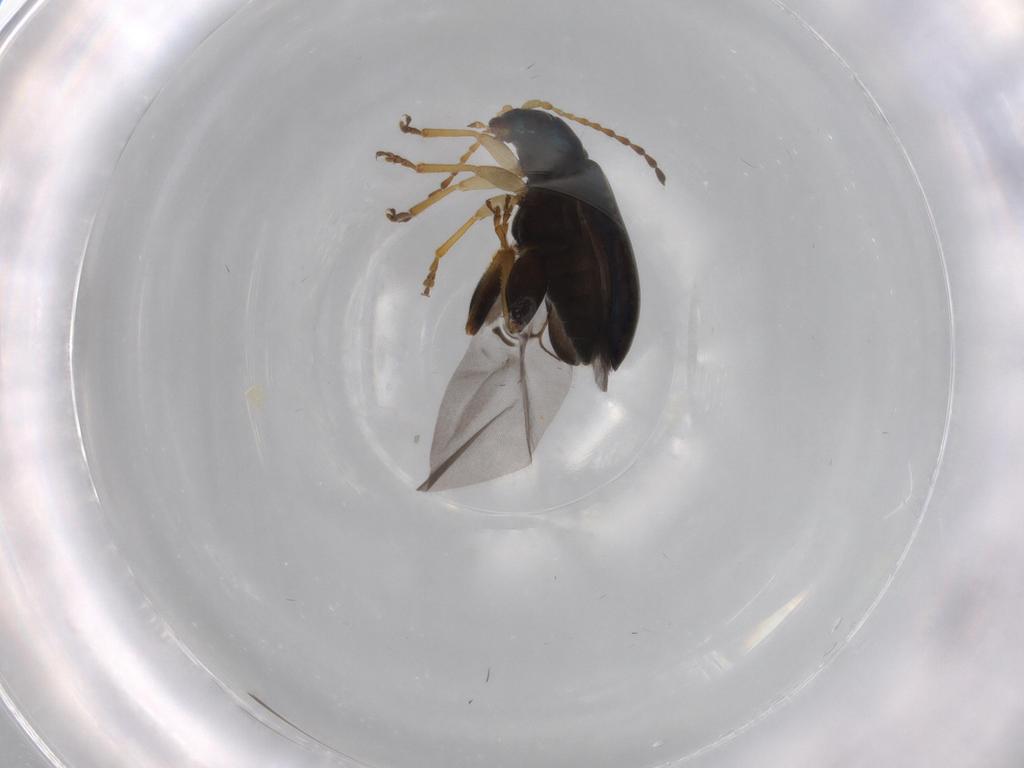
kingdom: Animalia
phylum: Arthropoda
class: Insecta
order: Coleoptera
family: Chrysomelidae
